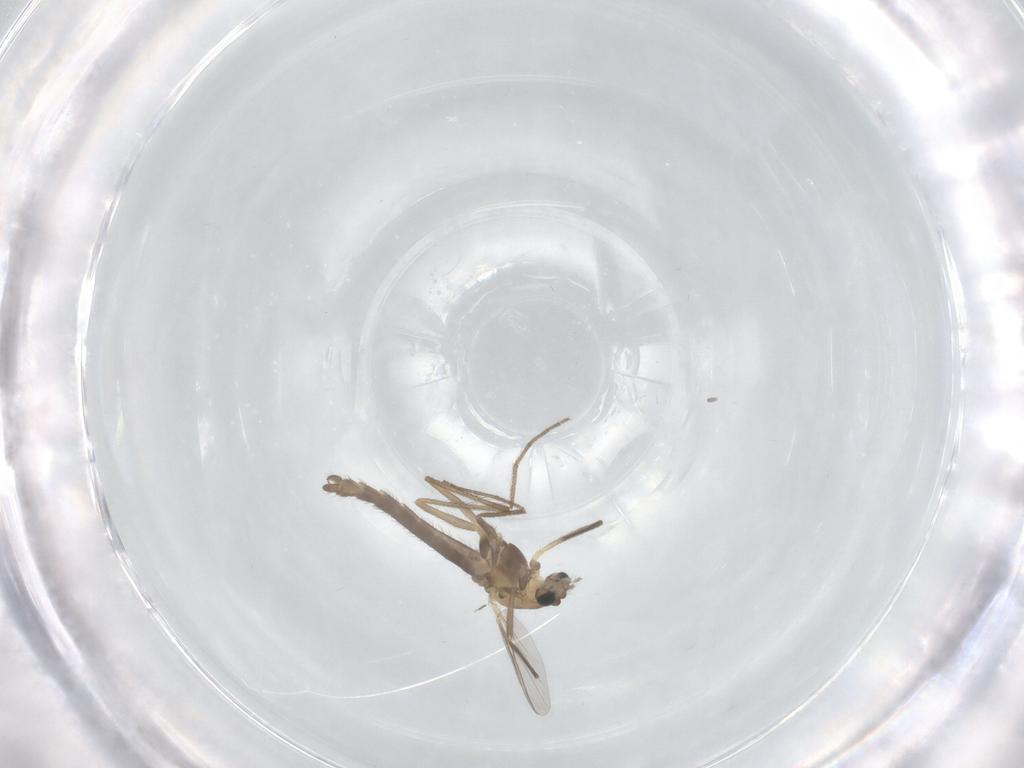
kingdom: Animalia
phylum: Arthropoda
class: Insecta
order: Diptera
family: Chironomidae
